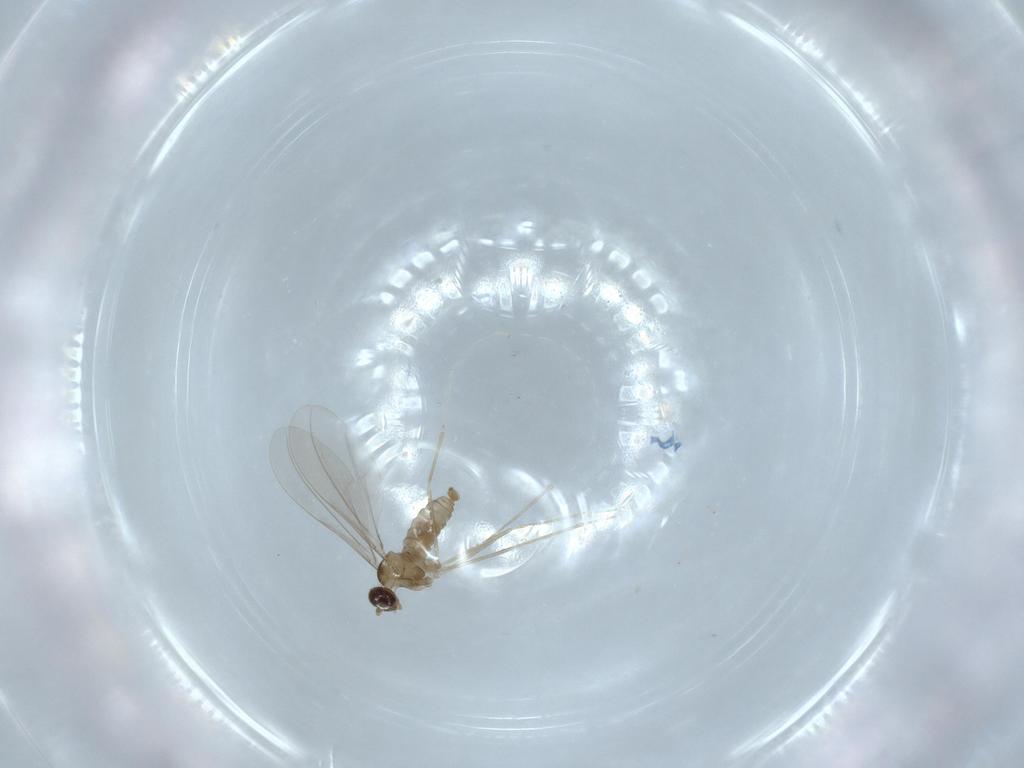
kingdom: Animalia
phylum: Arthropoda
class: Insecta
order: Diptera
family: Cecidomyiidae
